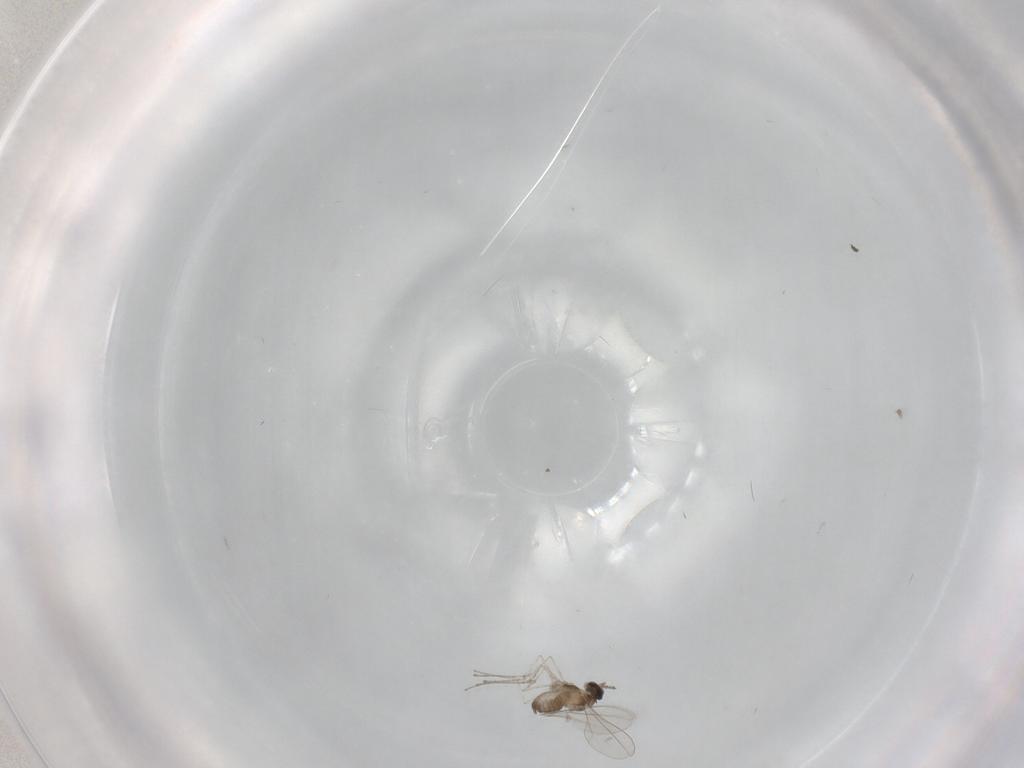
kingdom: Animalia
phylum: Arthropoda
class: Insecta
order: Diptera
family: Cecidomyiidae
